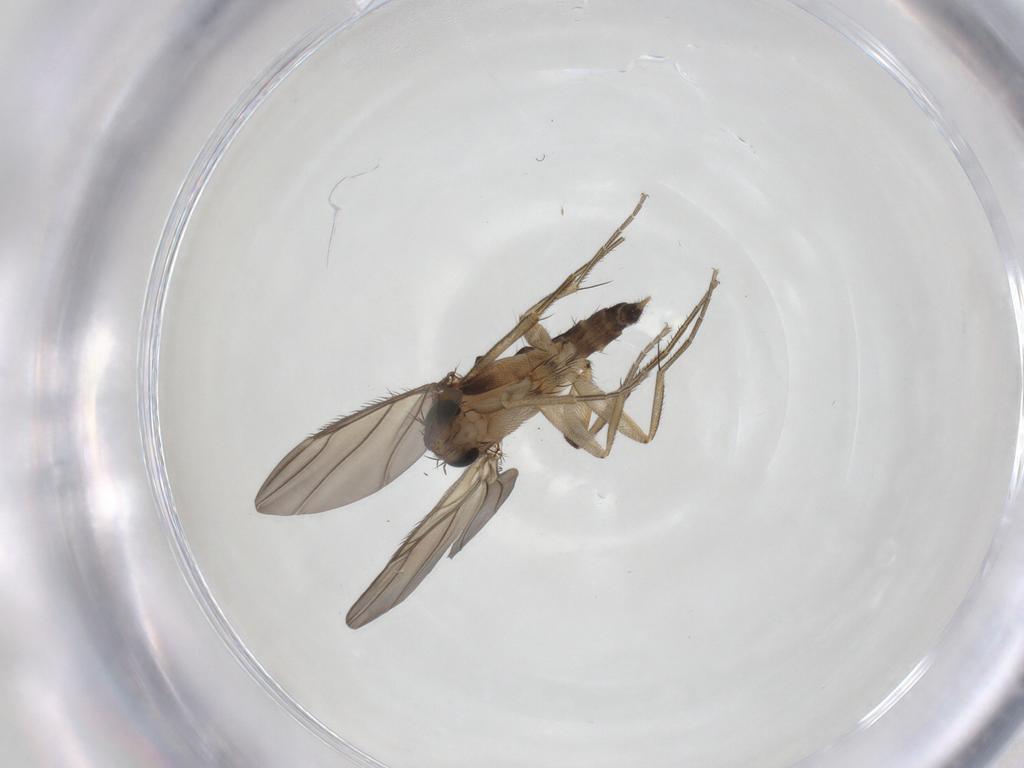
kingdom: Animalia
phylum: Arthropoda
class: Insecta
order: Diptera
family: Phoridae
